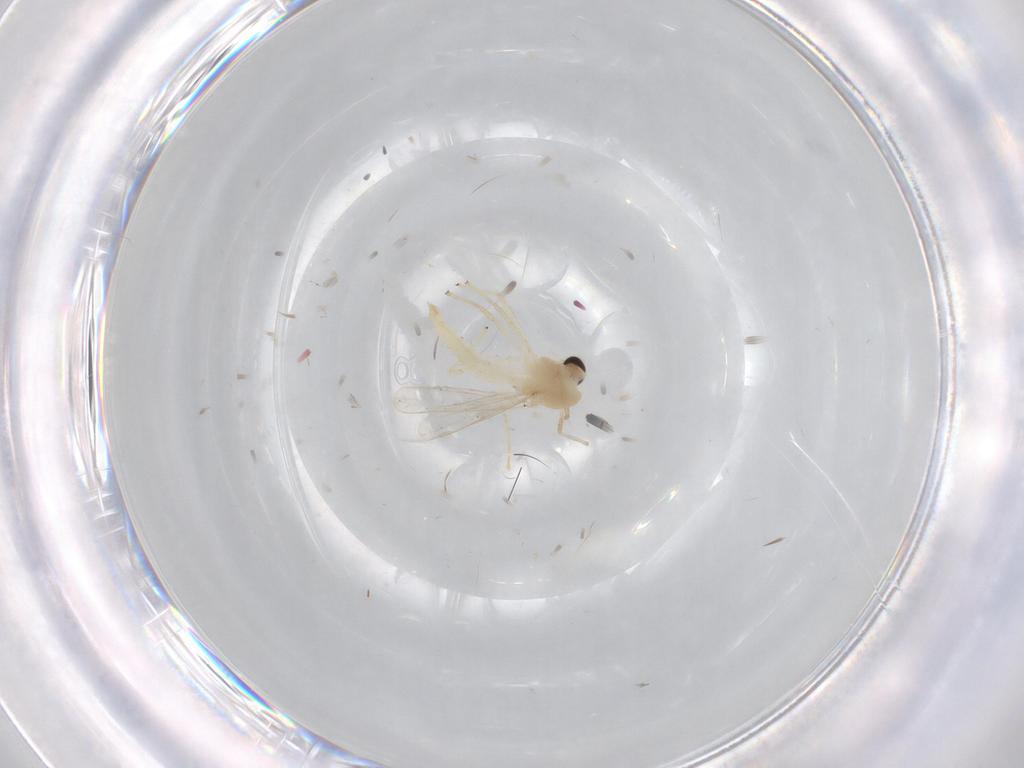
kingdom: Animalia
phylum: Arthropoda
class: Insecta
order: Diptera
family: Chironomidae
